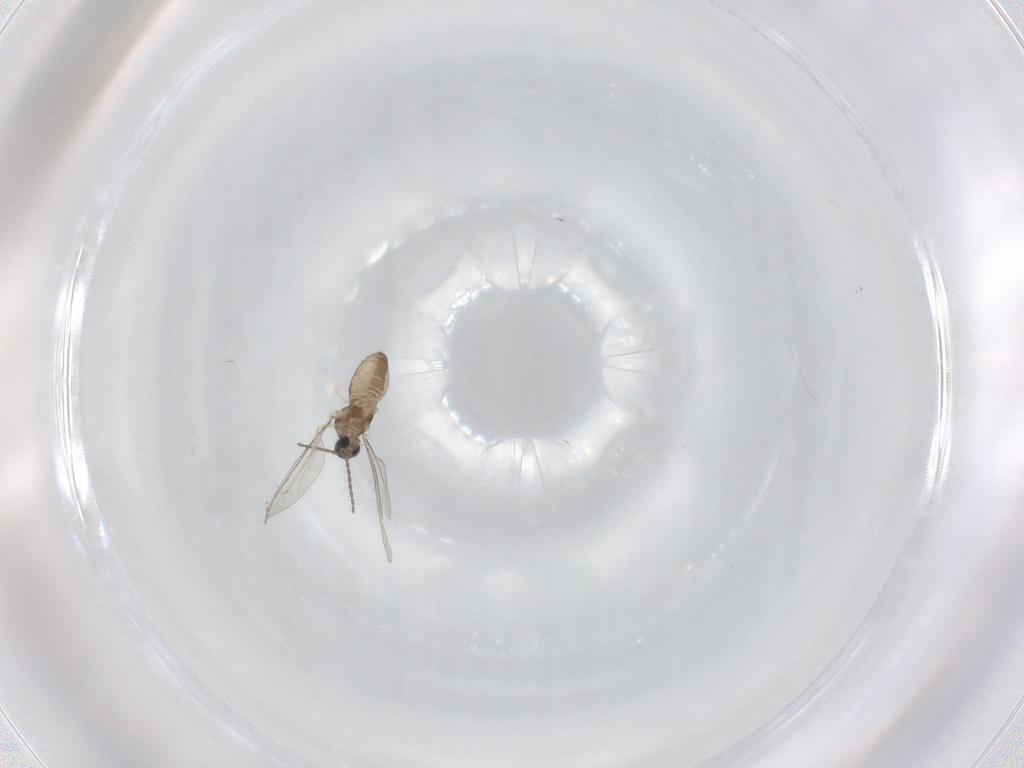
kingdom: Animalia
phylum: Arthropoda
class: Insecta
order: Diptera
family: Cecidomyiidae
